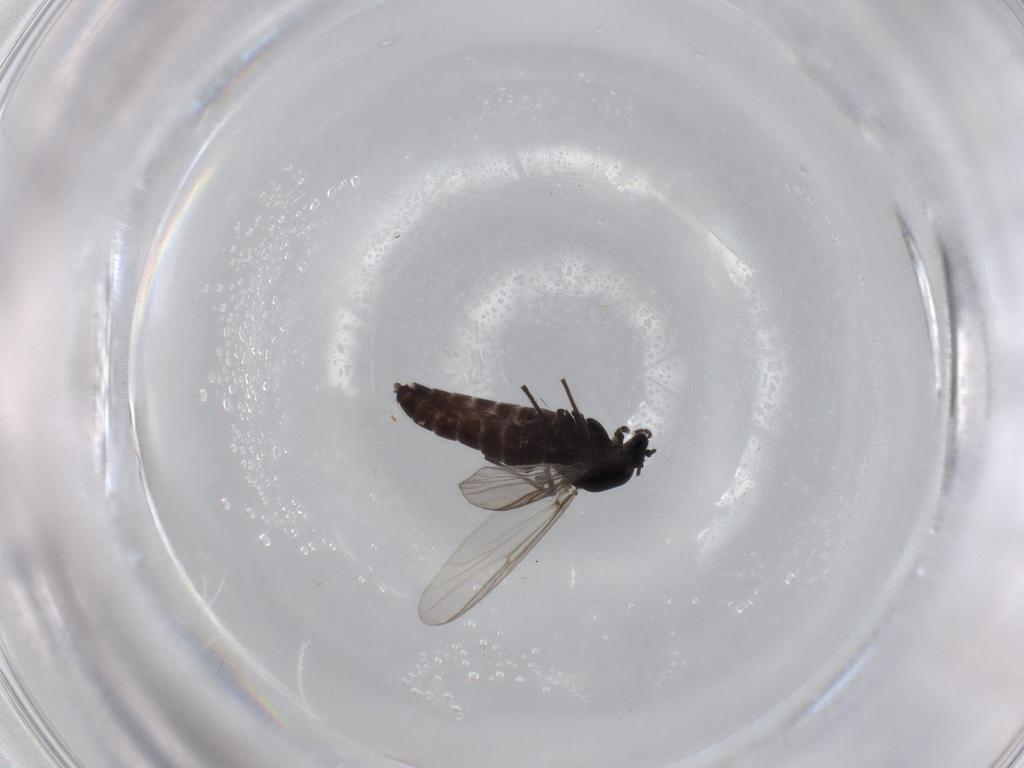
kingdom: Animalia
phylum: Arthropoda
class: Insecta
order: Diptera
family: Chironomidae
